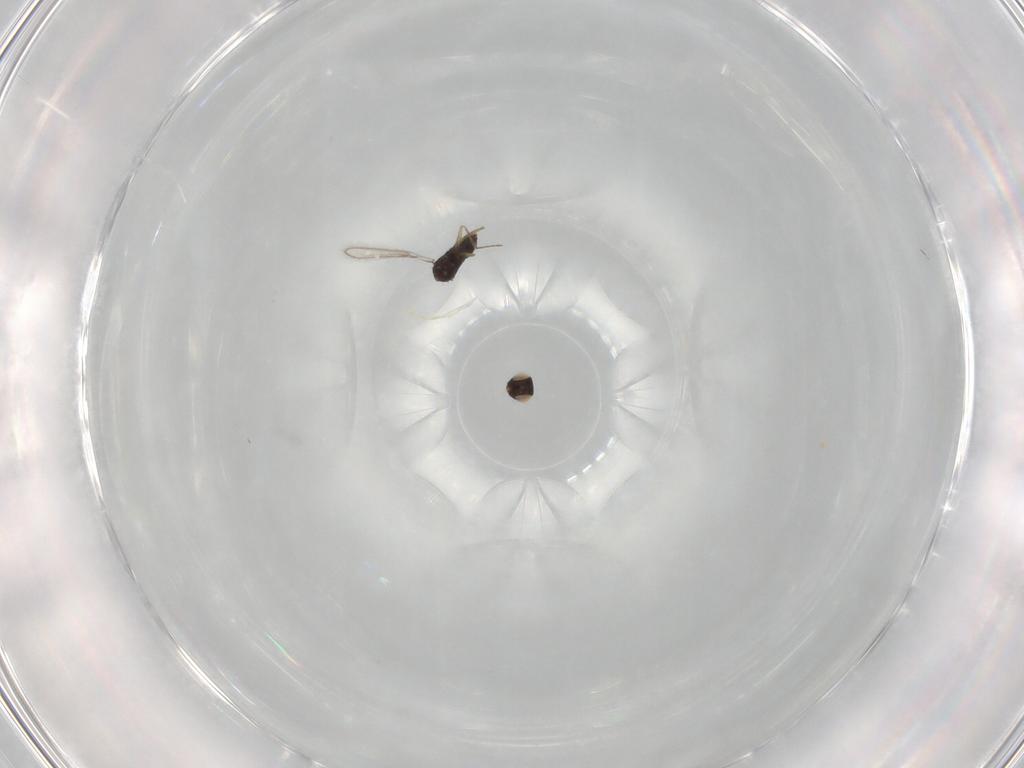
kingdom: Animalia
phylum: Arthropoda
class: Insecta
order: Hymenoptera
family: Mymaridae
